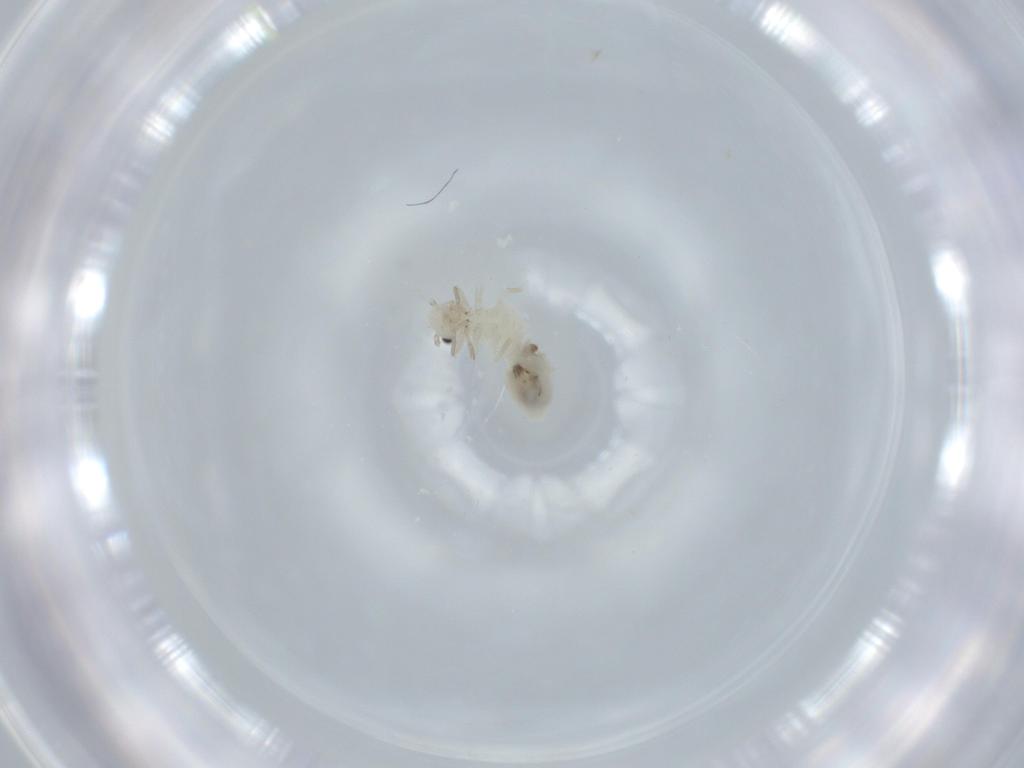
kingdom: Animalia
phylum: Arthropoda
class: Insecta
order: Psocodea
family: Caeciliusidae
